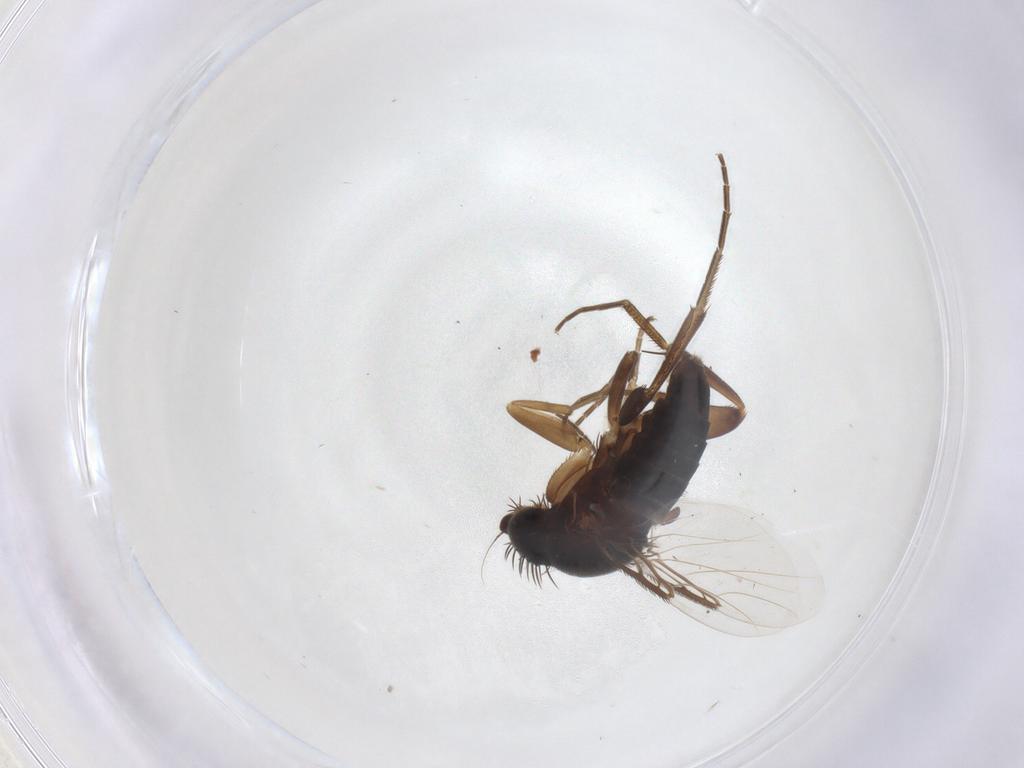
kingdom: Animalia
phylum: Arthropoda
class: Insecta
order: Diptera
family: Phoridae
